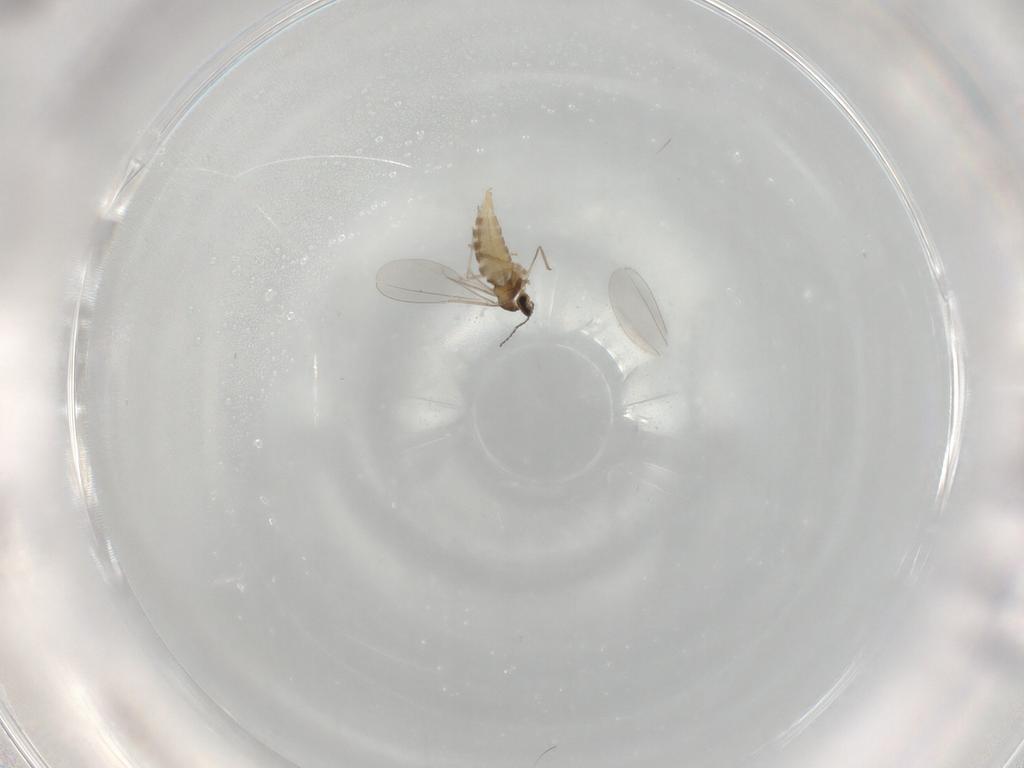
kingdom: Animalia
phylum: Arthropoda
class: Insecta
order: Diptera
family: Cecidomyiidae
